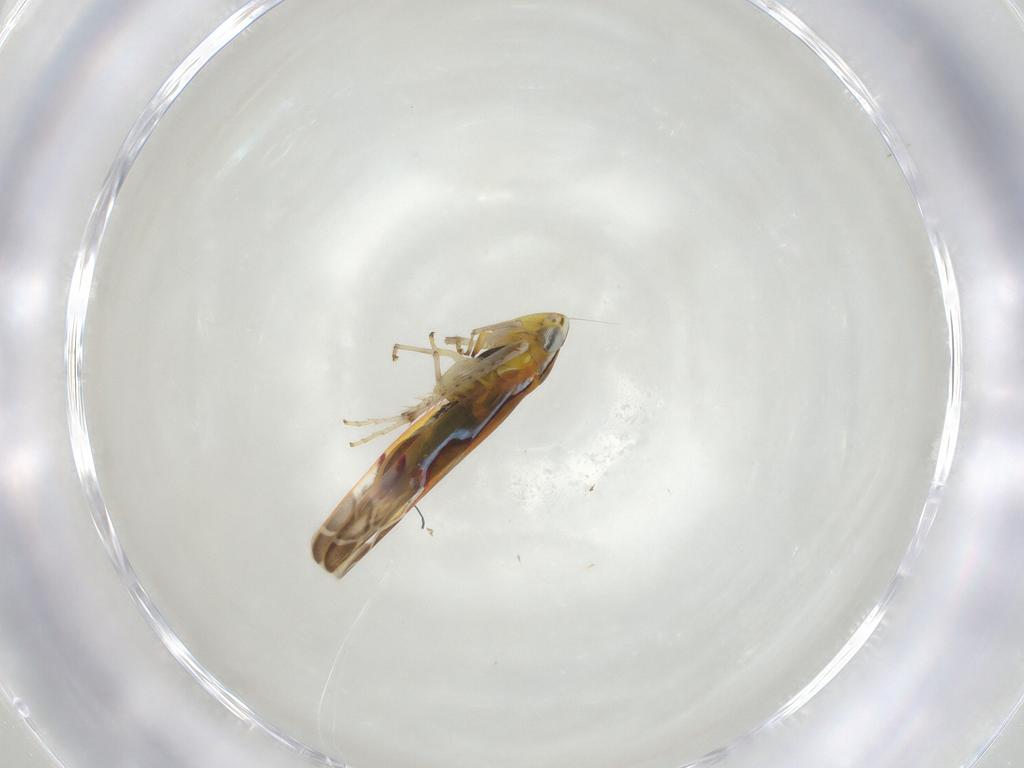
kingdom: Animalia
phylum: Arthropoda
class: Insecta
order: Hemiptera
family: Cicadellidae
